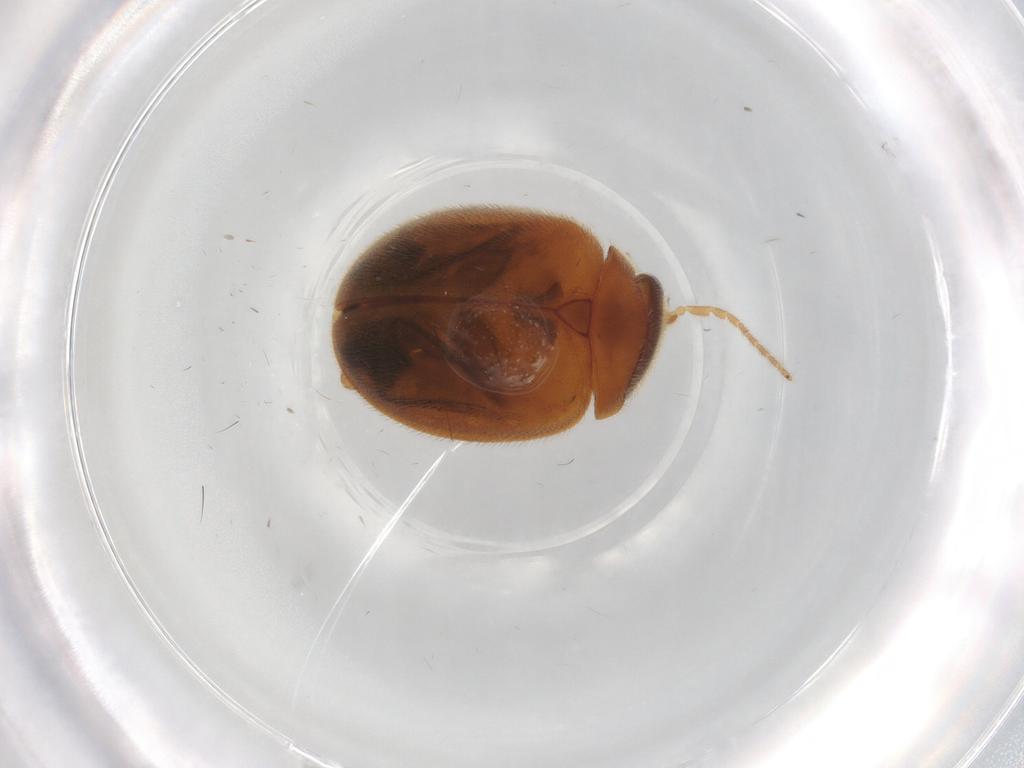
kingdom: Animalia
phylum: Arthropoda
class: Insecta
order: Coleoptera
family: Scirtidae
